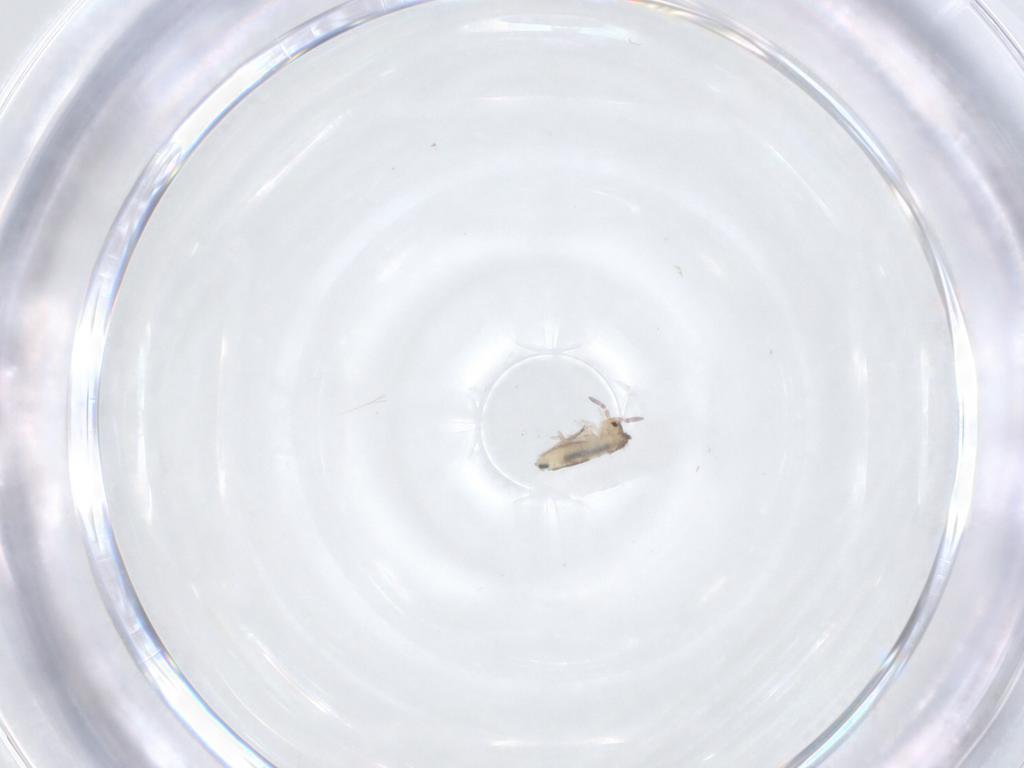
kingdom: Animalia
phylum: Arthropoda
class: Collembola
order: Entomobryomorpha
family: Entomobryidae
